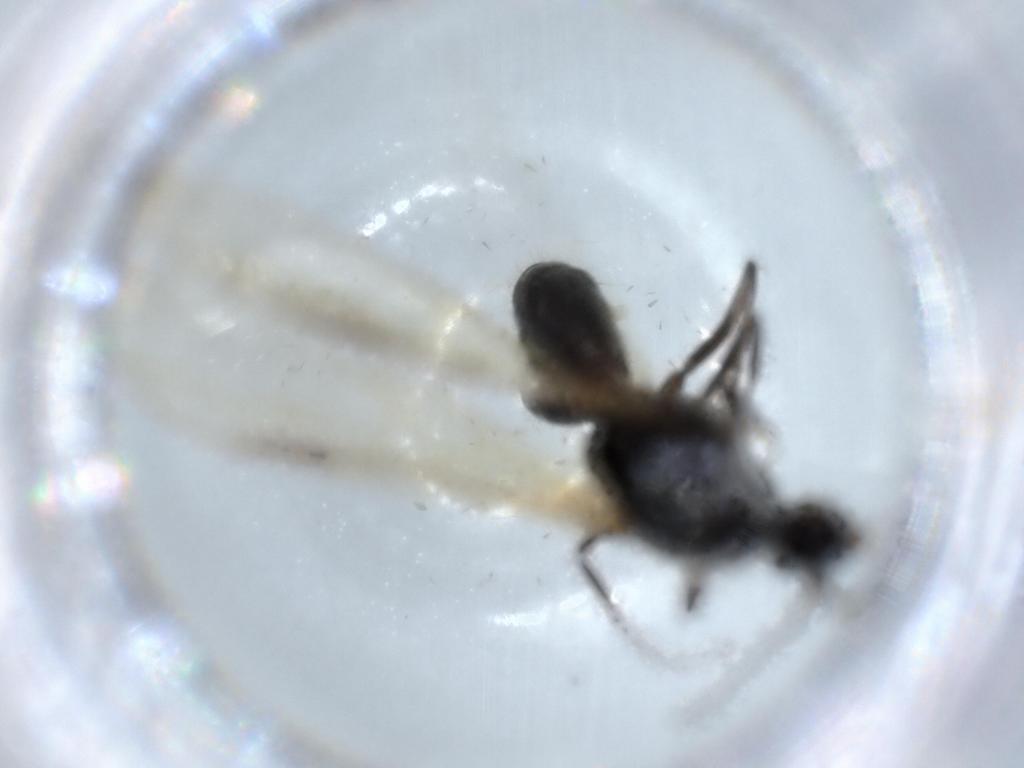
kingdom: Animalia
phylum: Arthropoda
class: Insecta
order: Hymenoptera
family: Formicidae
